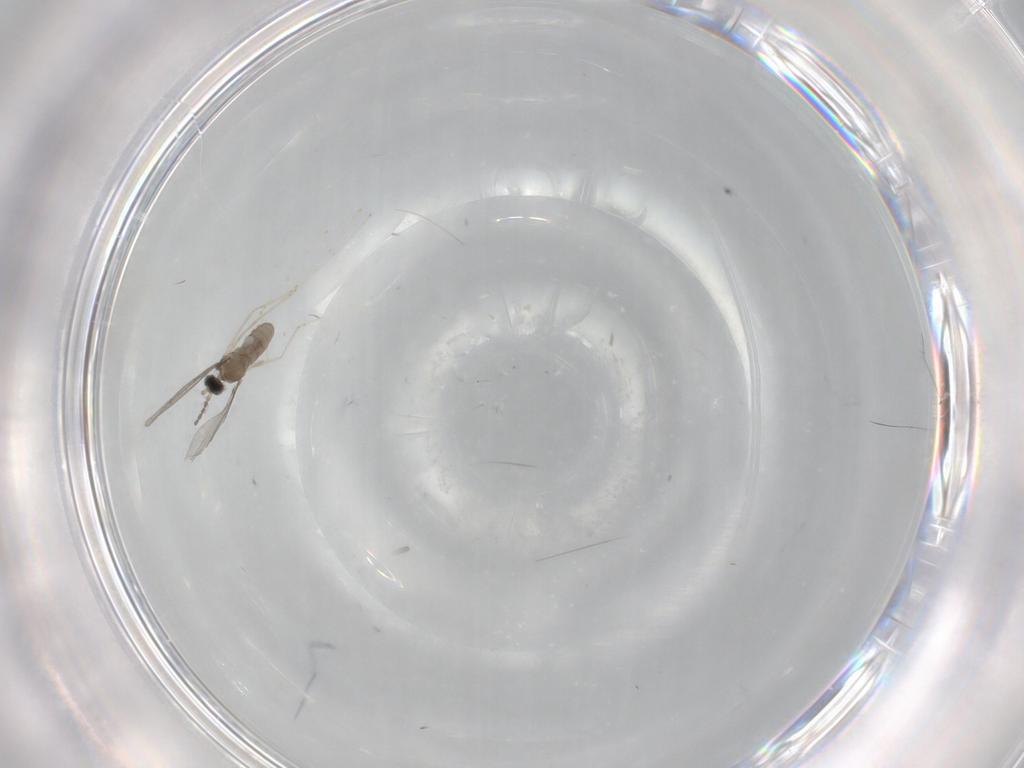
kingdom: Animalia
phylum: Arthropoda
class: Insecta
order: Diptera
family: Cecidomyiidae
